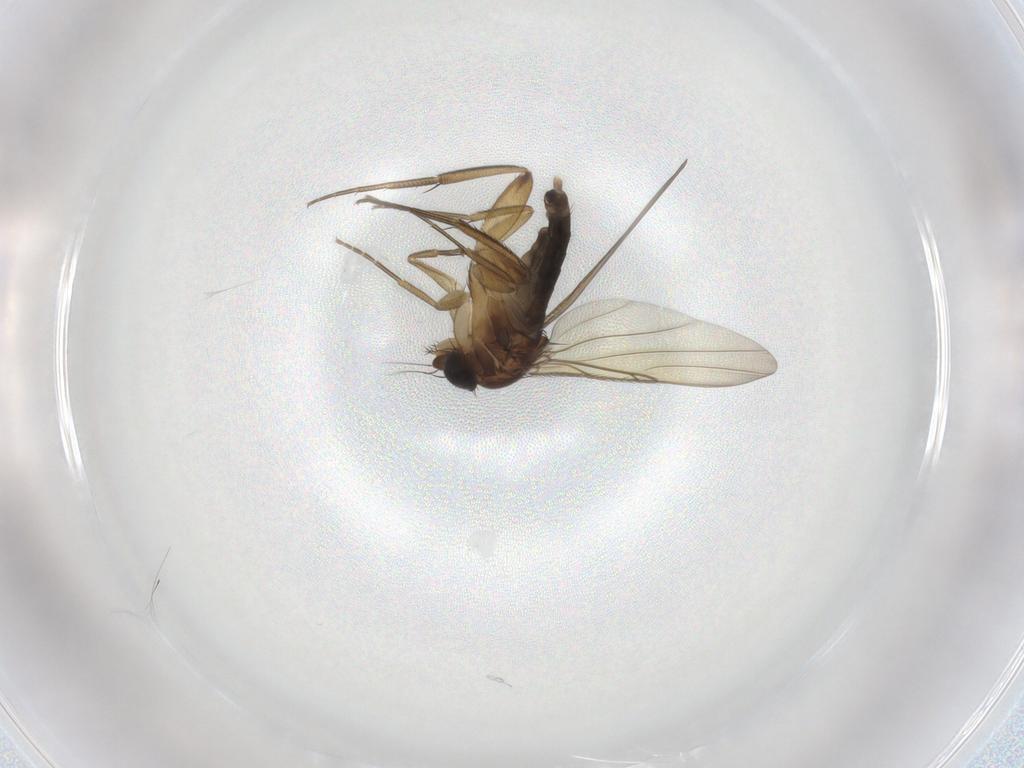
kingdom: Animalia
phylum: Arthropoda
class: Insecta
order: Diptera
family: Phoridae
